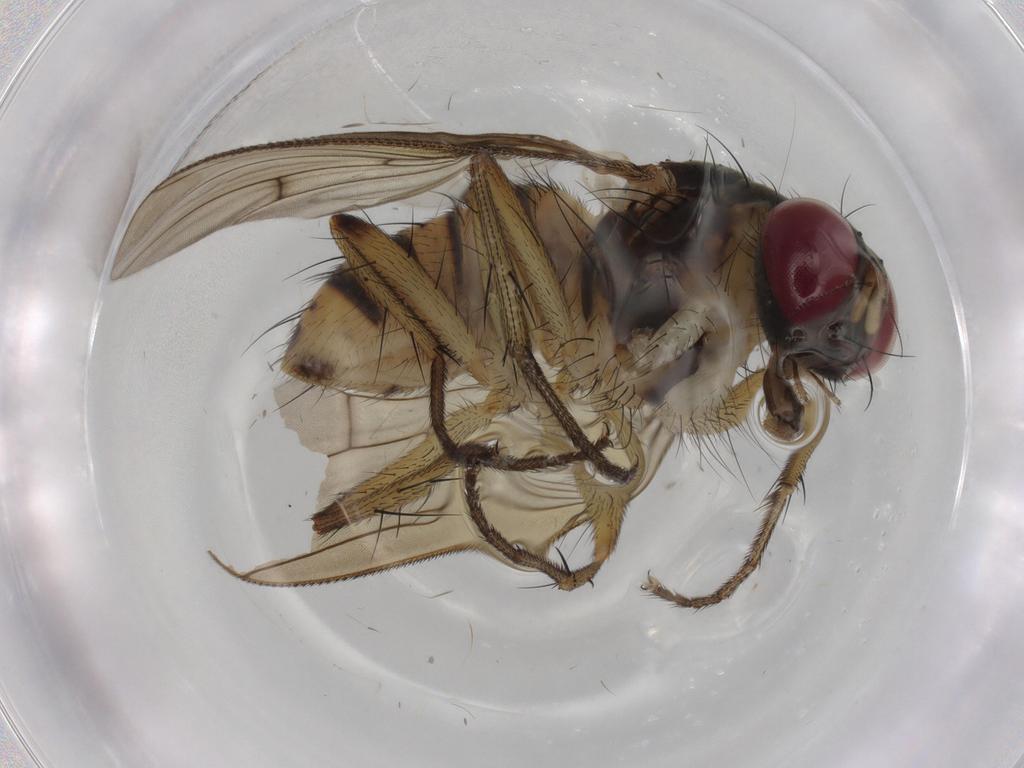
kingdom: Animalia
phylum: Arthropoda
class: Insecta
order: Diptera
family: Muscidae
